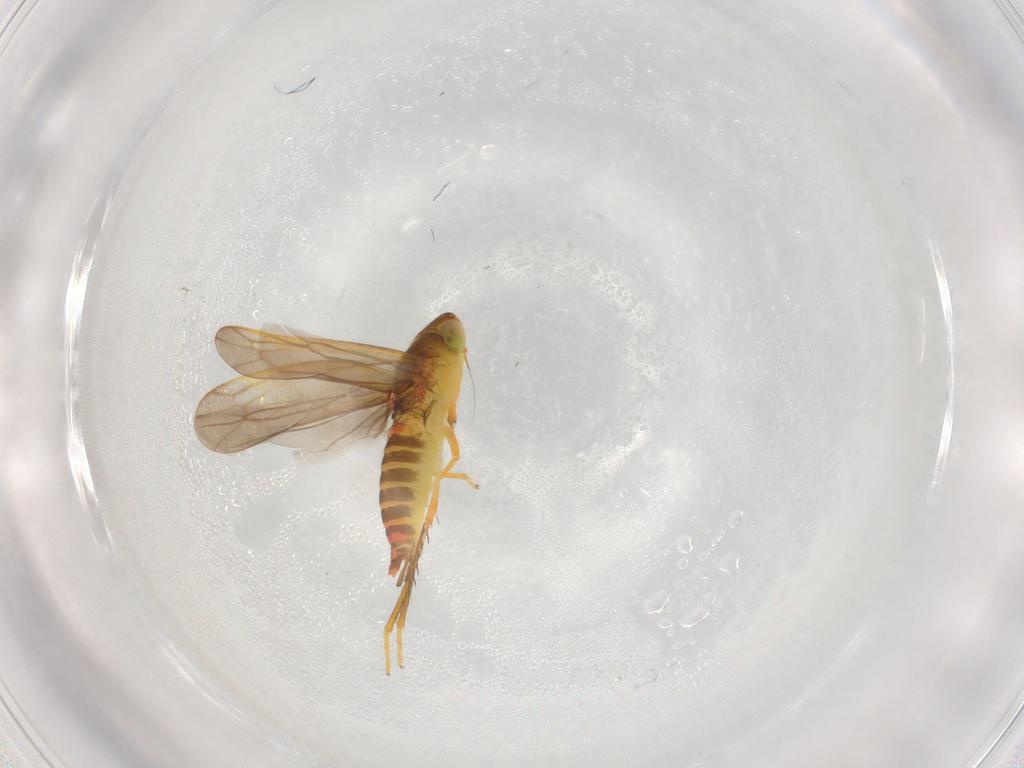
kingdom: Animalia
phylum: Arthropoda
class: Insecta
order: Hemiptera
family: Cicadellidae
